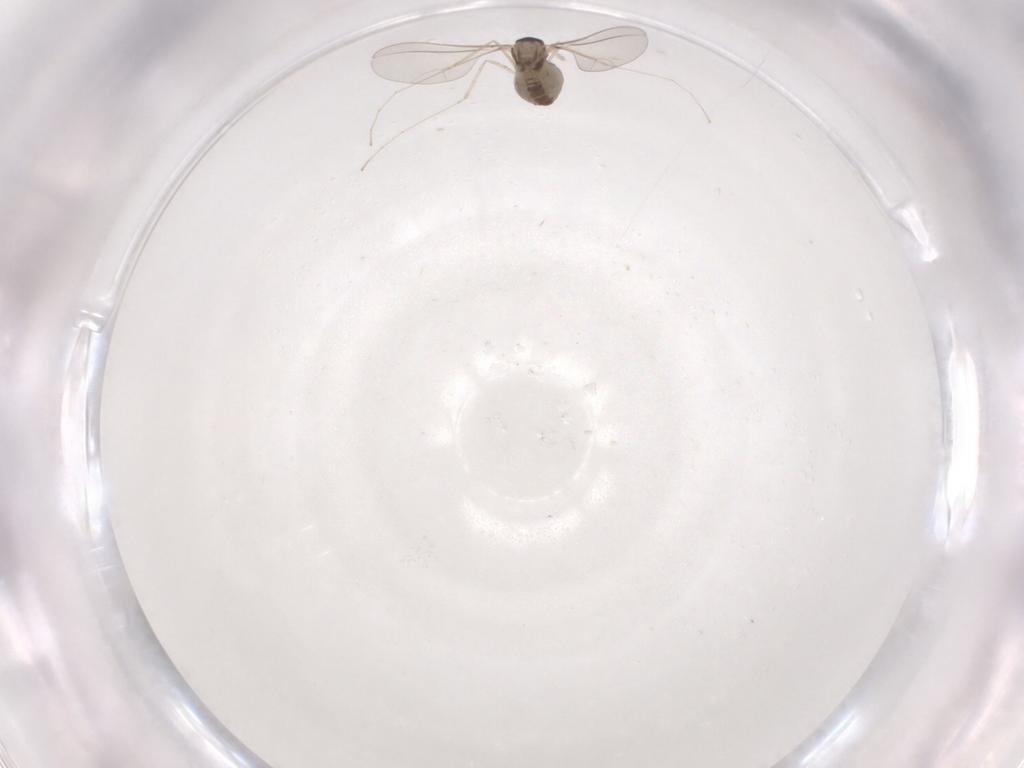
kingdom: Animalia
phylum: Arthropoda
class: Insecta
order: Diptera
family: Cecidomyiidae
